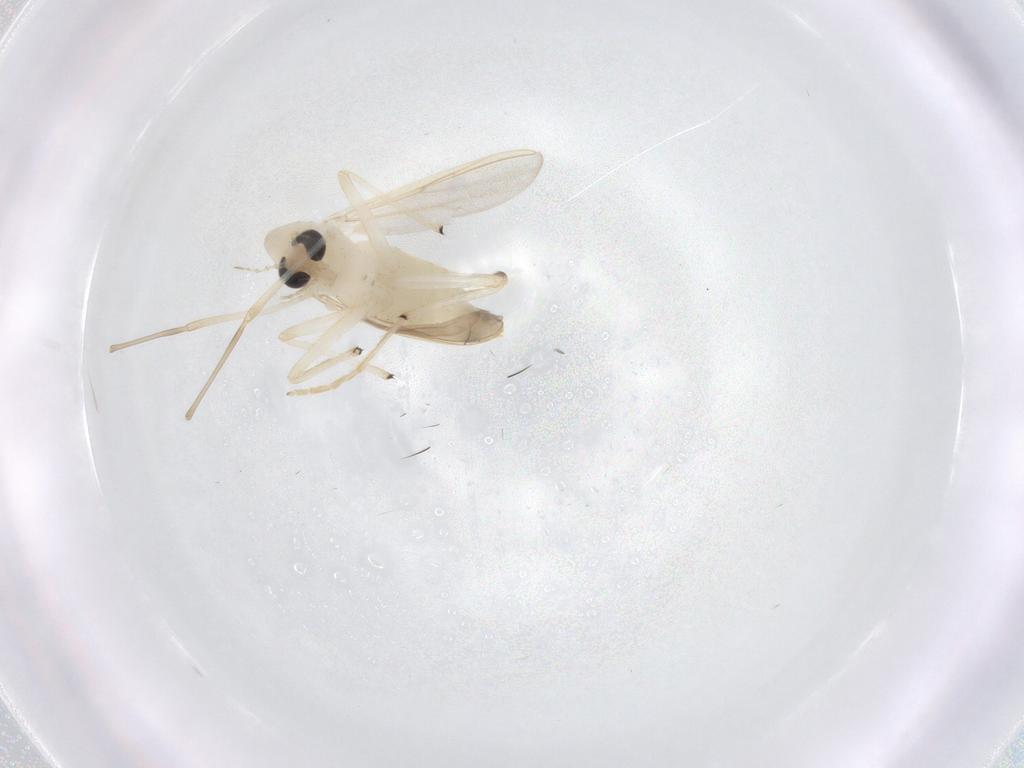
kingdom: Animalia
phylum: Arthropoda
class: Insecta
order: Diptera
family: Chironomidae
